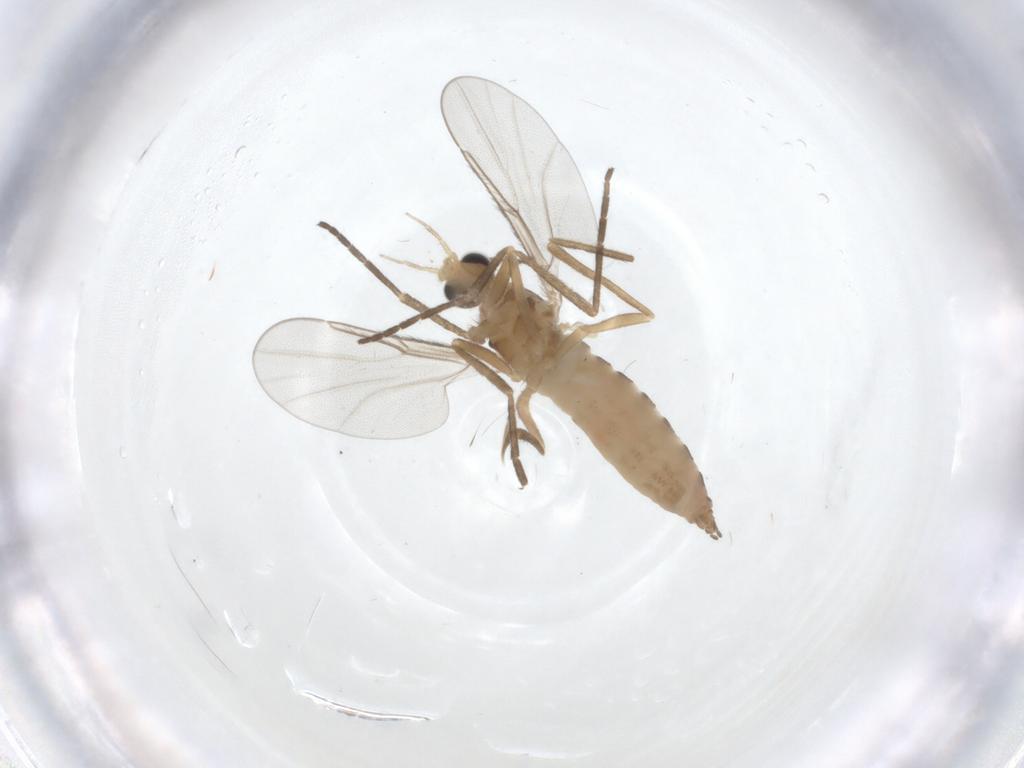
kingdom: Animalia
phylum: Arthropoda
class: Insecta
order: Diptera
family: Cecidomyiidae
